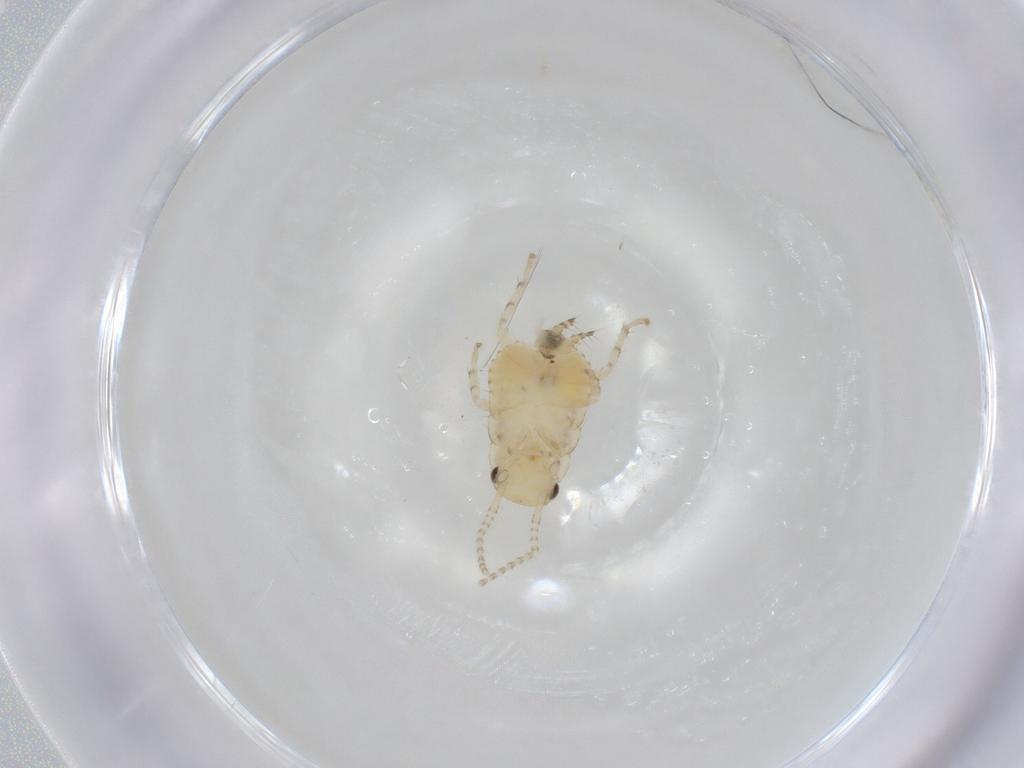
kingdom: Animalia
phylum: Arthropoda
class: Insecta
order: Blattodea
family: Ectobiidae
